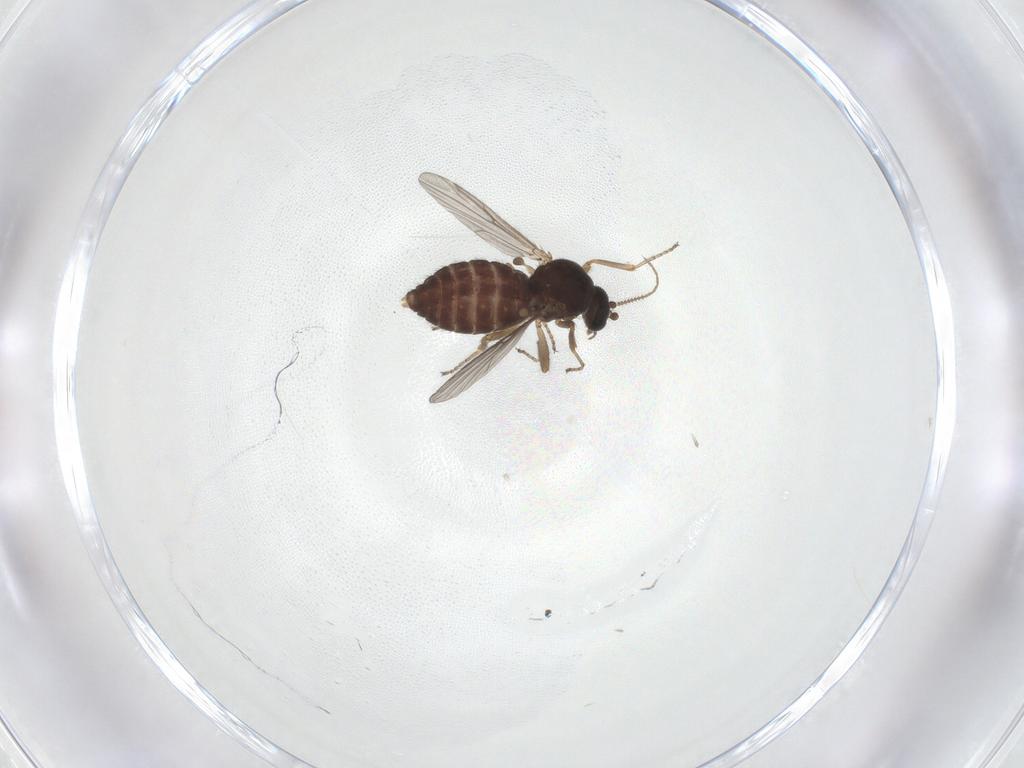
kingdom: Animalia
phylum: Arthropoda
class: Insecta
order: Diptera
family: Ceratopogonidae
